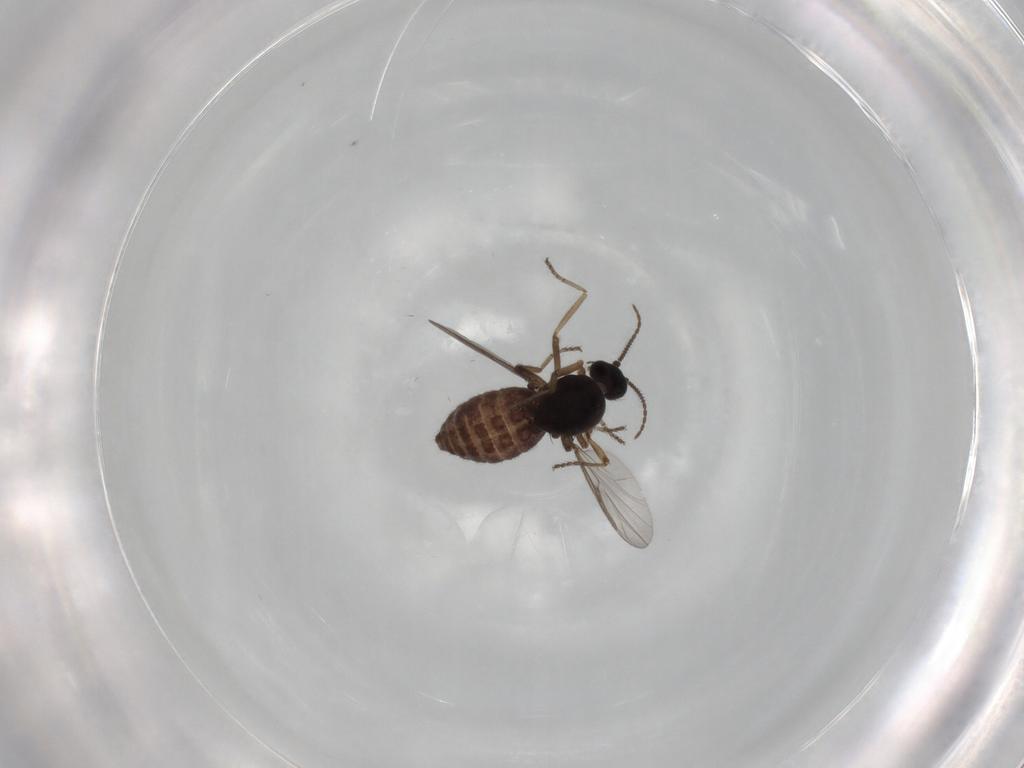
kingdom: Animalia
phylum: Arthropoda
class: Insecta
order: Diptera
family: Ceratopogonidae
